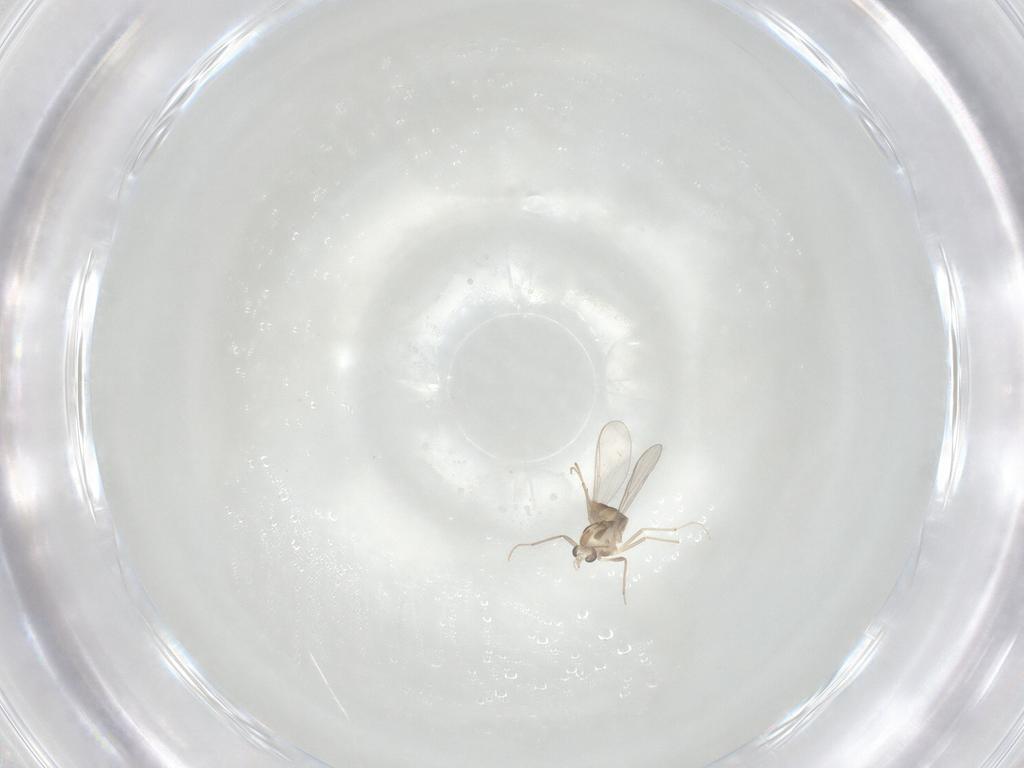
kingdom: Animalia
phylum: Arthropoda
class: Insecta
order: Diptera
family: Chironomidae
